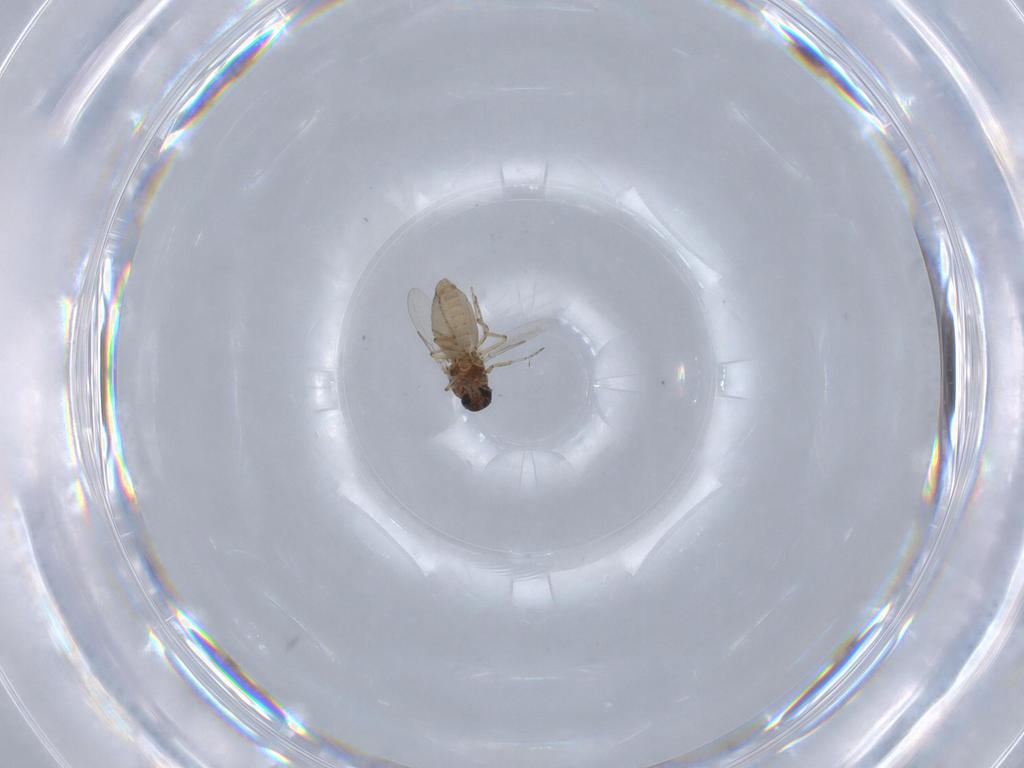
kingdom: Animalia
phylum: Arthropoda
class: Insecta
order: Diptera
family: Ceratopogonidae
